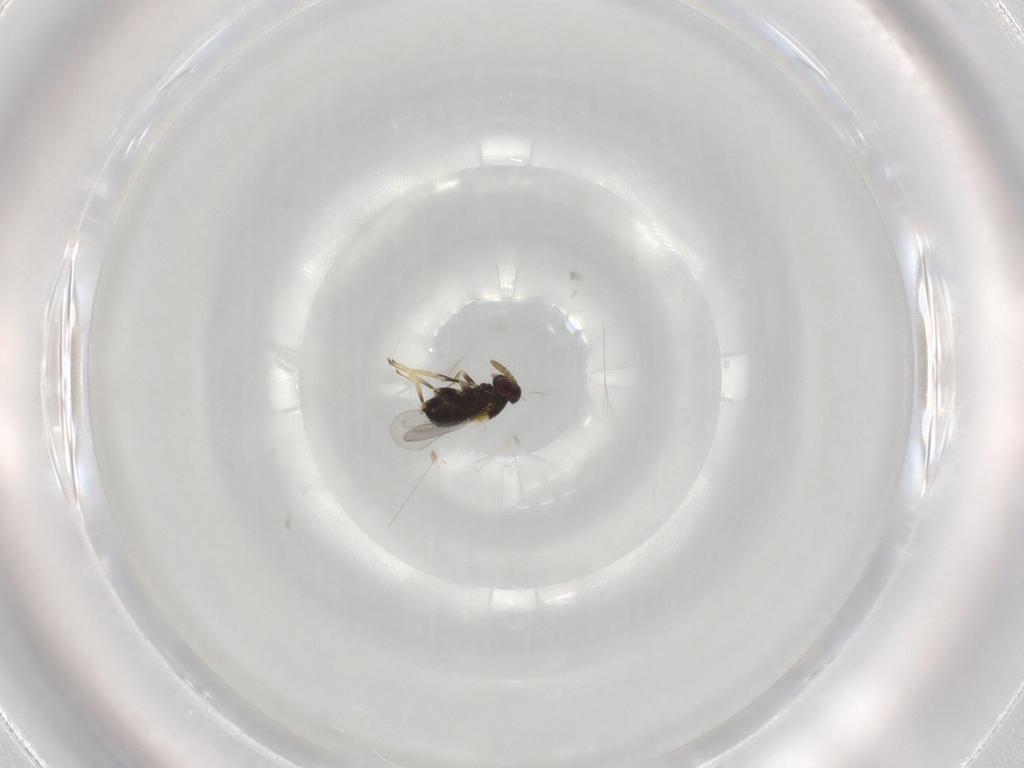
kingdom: Animalia
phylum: Arthropoda
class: Insecta
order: Hymenoptera
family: Aphelinidae
